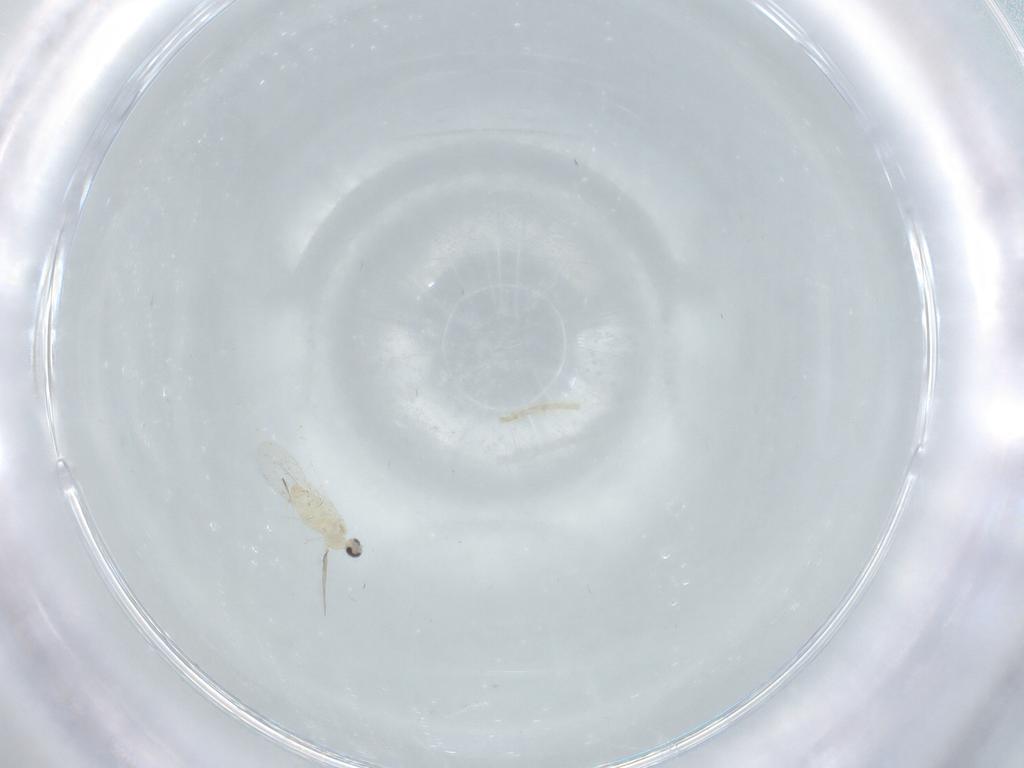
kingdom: Animalia
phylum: Arthropoda
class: Insecta
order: Diptera
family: Cecidomyiidae
